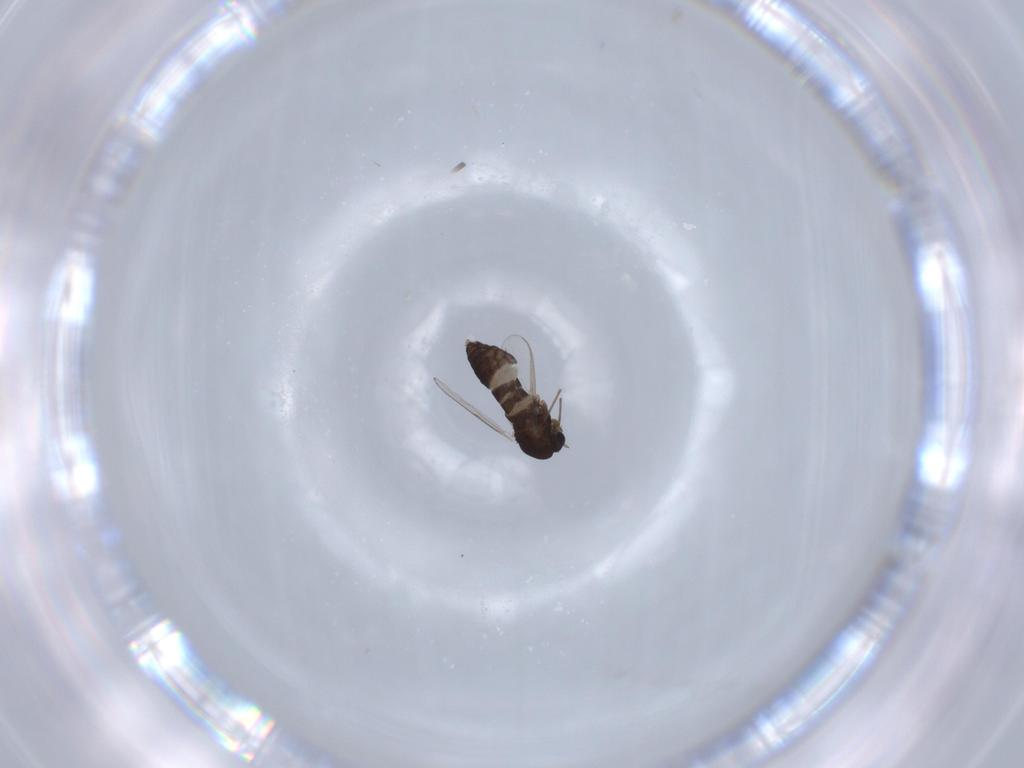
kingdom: Animalia
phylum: Arthropoda
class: Insecta
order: Diptera
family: Chironomidae
